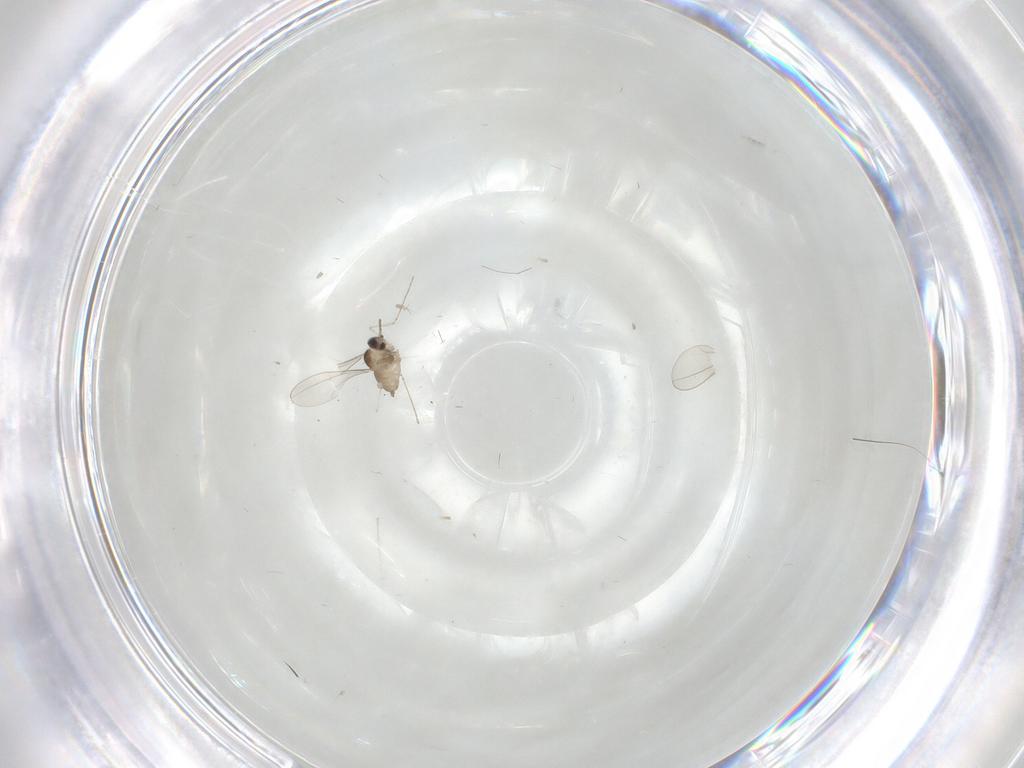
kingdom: Animalia
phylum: Arthropoda
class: Insecta
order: Diptera
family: Cecidomyiidae
